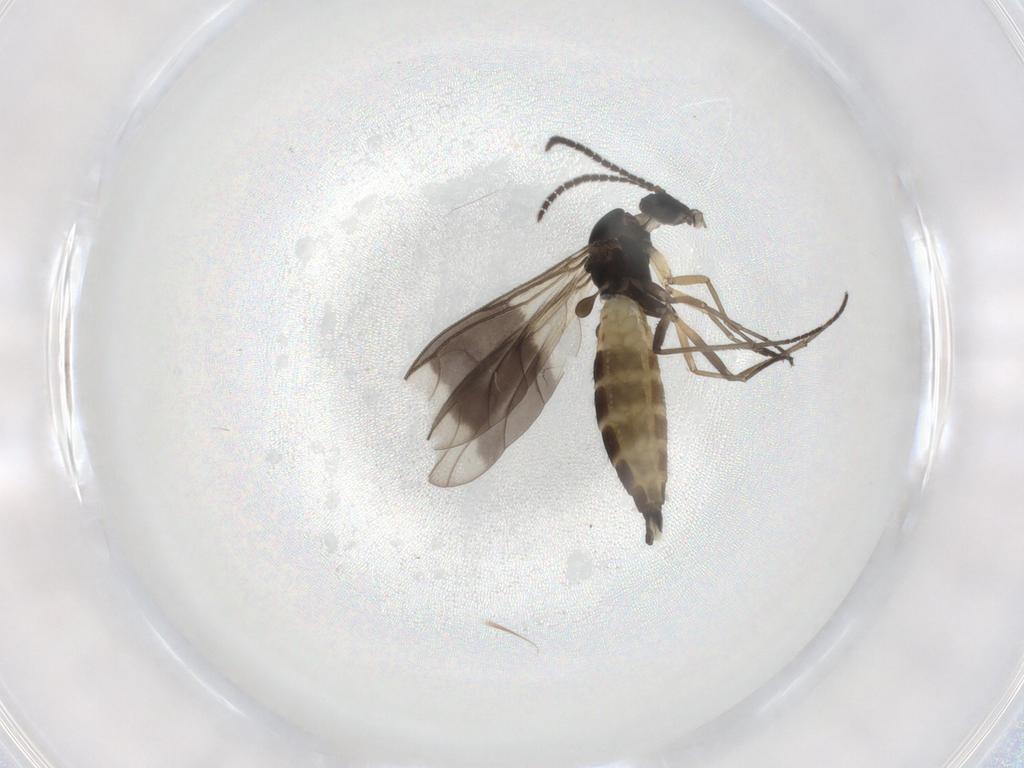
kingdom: Animalia
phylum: Arthropoda
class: Insecta
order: Diptera
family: Sciaridae
